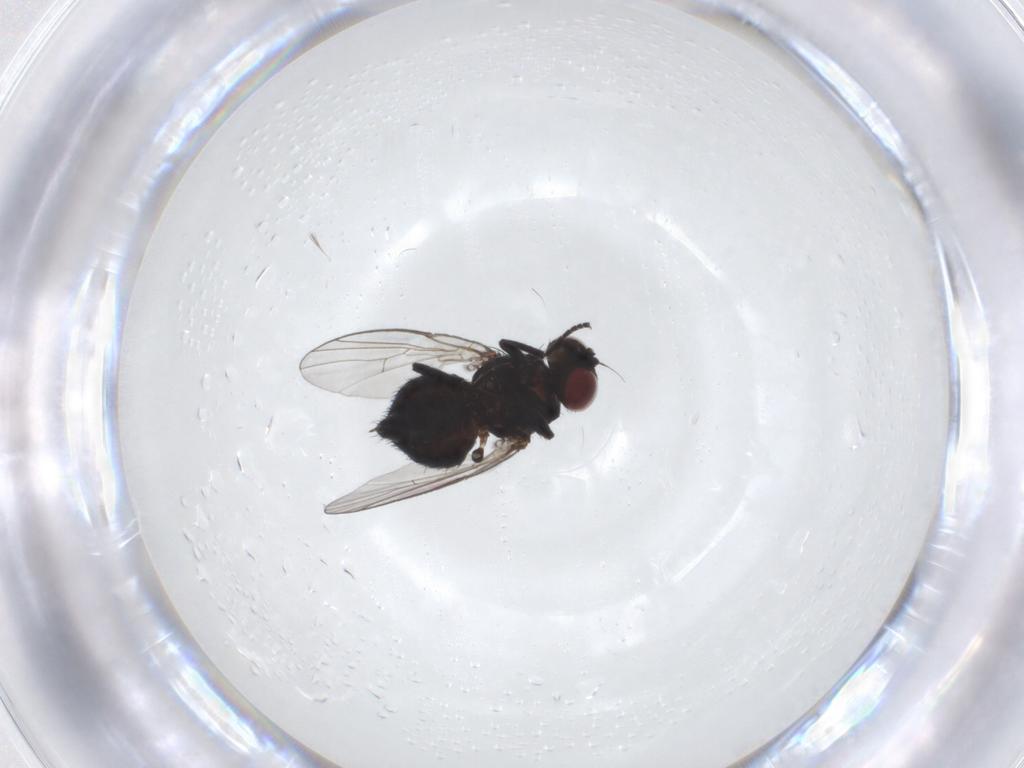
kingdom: Animalia
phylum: Arthropoda
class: Insecta
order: Diptera
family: Agromyzidae
